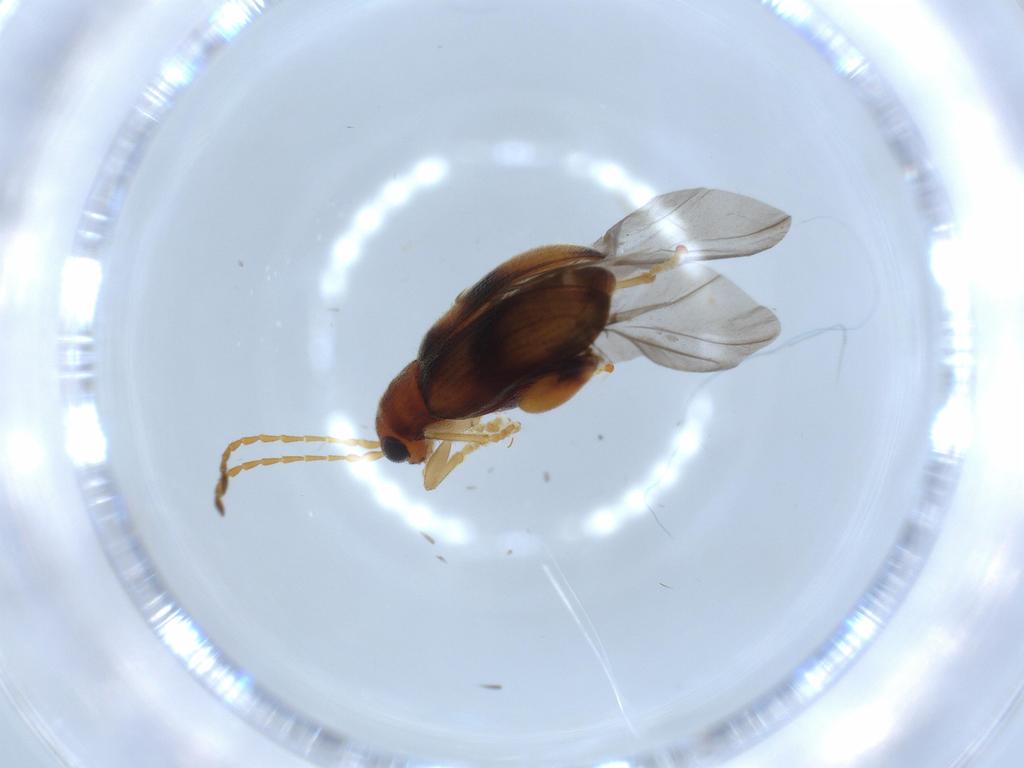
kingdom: Animalia
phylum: Arthropoda
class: Insecta
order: Coleoptera
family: Chrysomelidae
